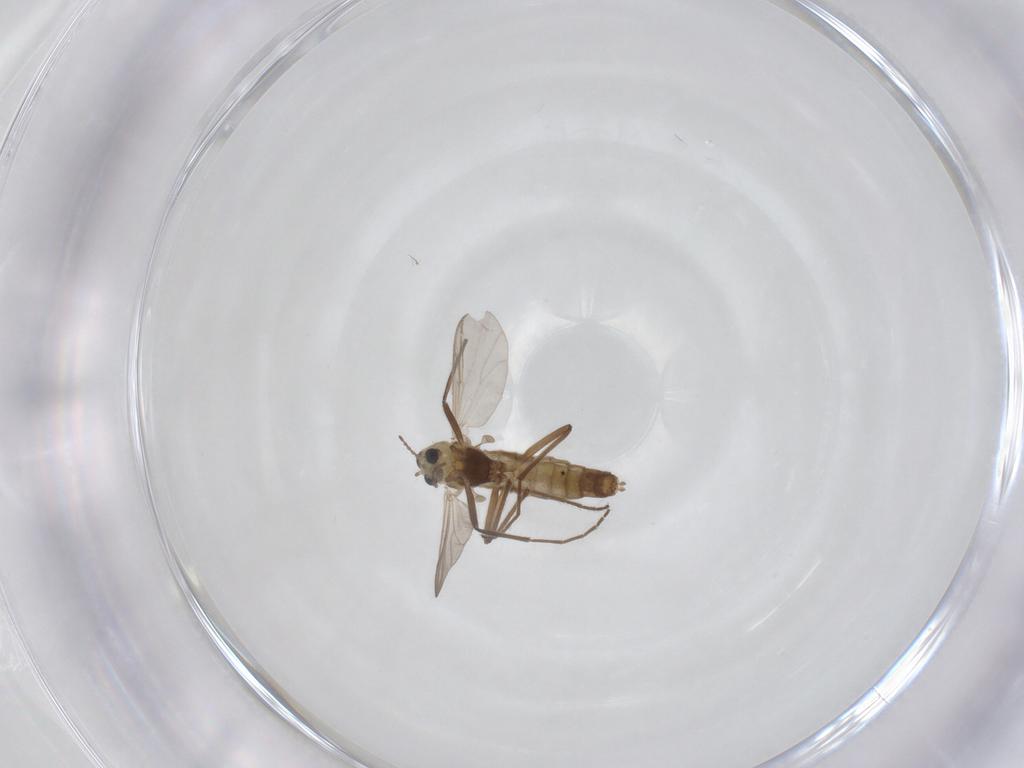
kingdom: Animalia
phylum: Arthropoda
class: Insecta
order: Diptera
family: Chironomidae
